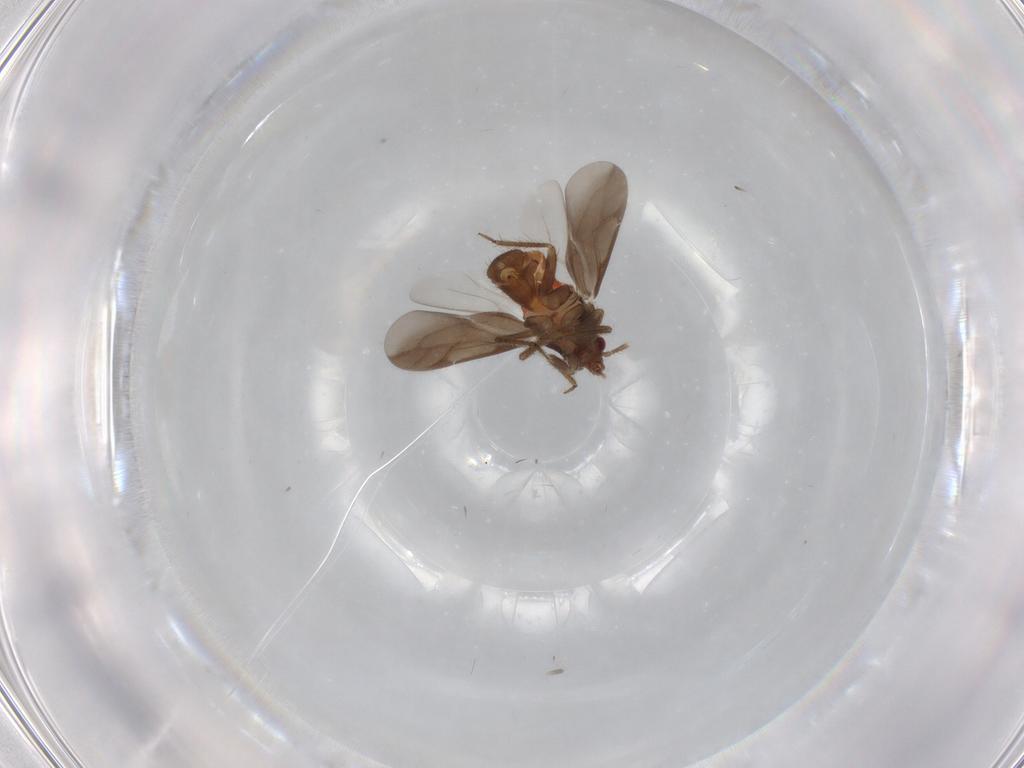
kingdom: Animalia
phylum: Arthropoda
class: Insecta
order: Hemiptera
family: Ceratocombidae
